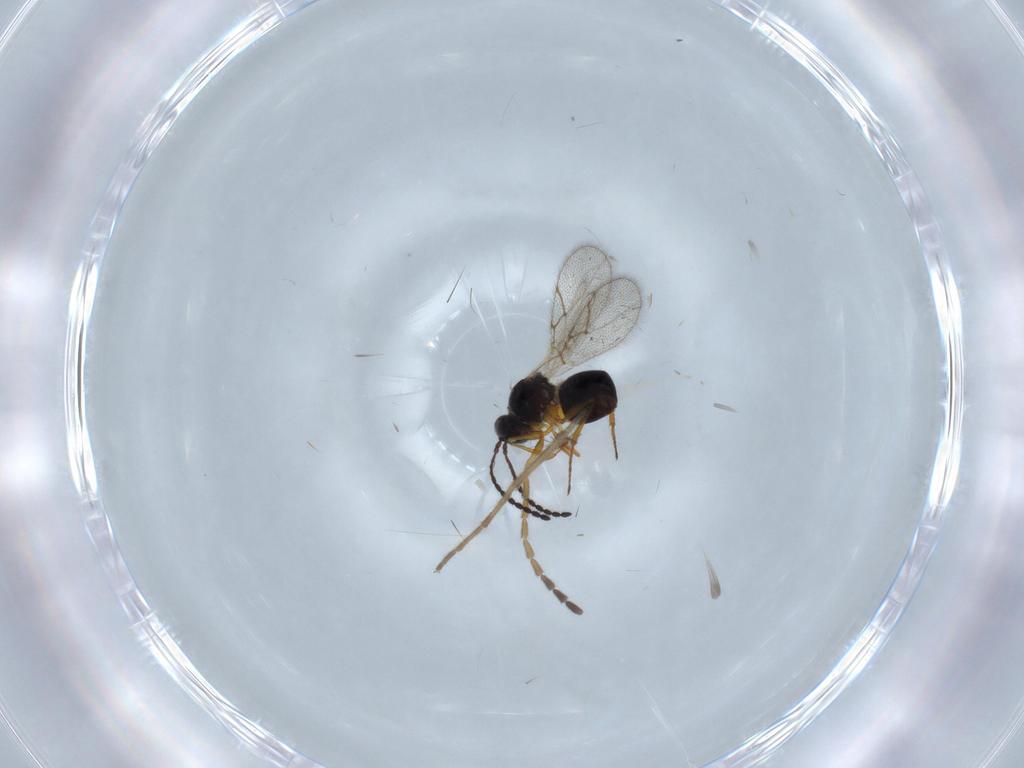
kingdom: Animalia
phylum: Arthropoda
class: Insecta
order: Hymenoptera
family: Figitidae
